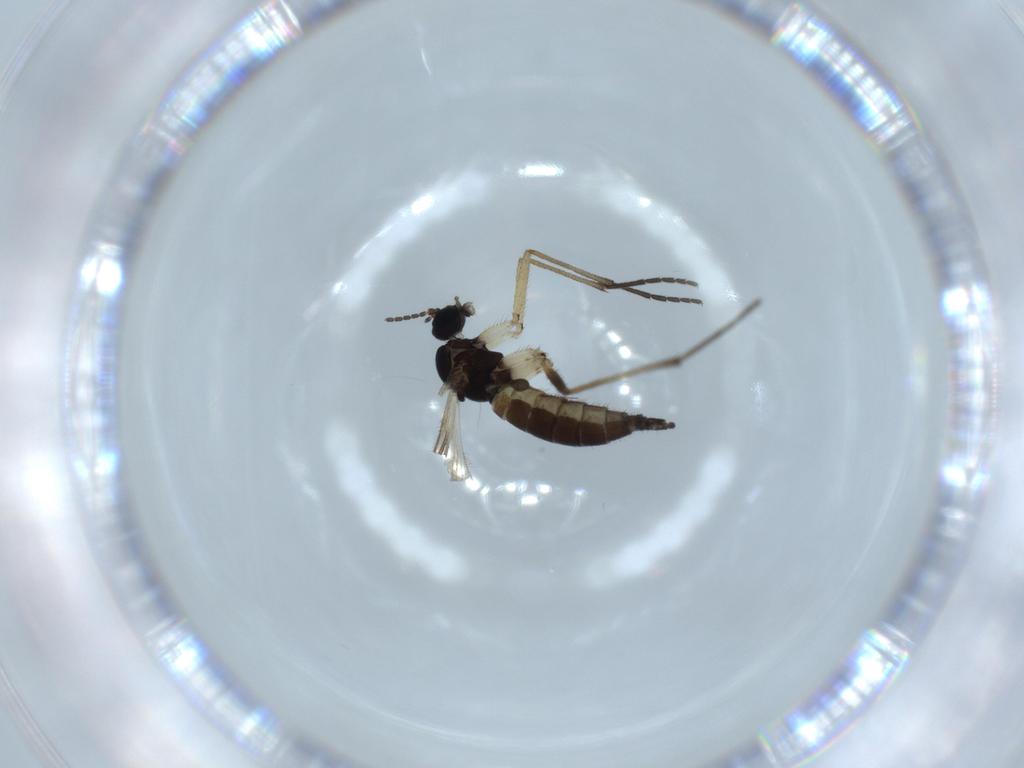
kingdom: Animalia
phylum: Arthropoda
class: Insecta
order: Diptera
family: Sciaridae
